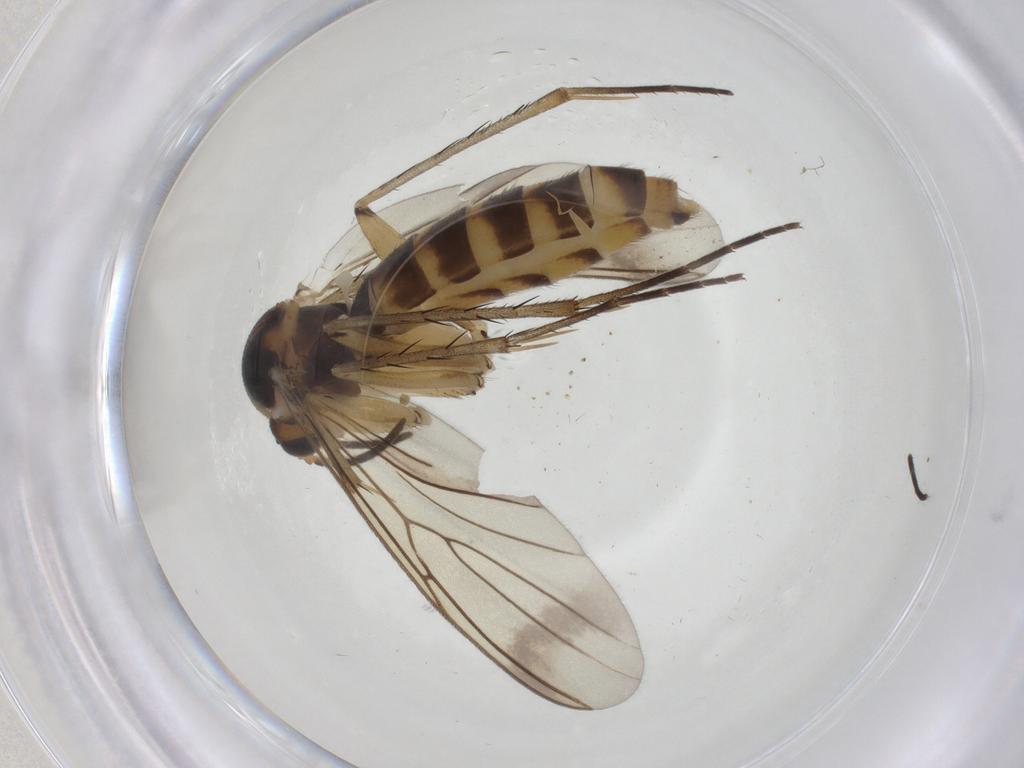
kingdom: Animalia
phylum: Arthropoda
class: Insecta
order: Diptera
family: Mycetophilidae
